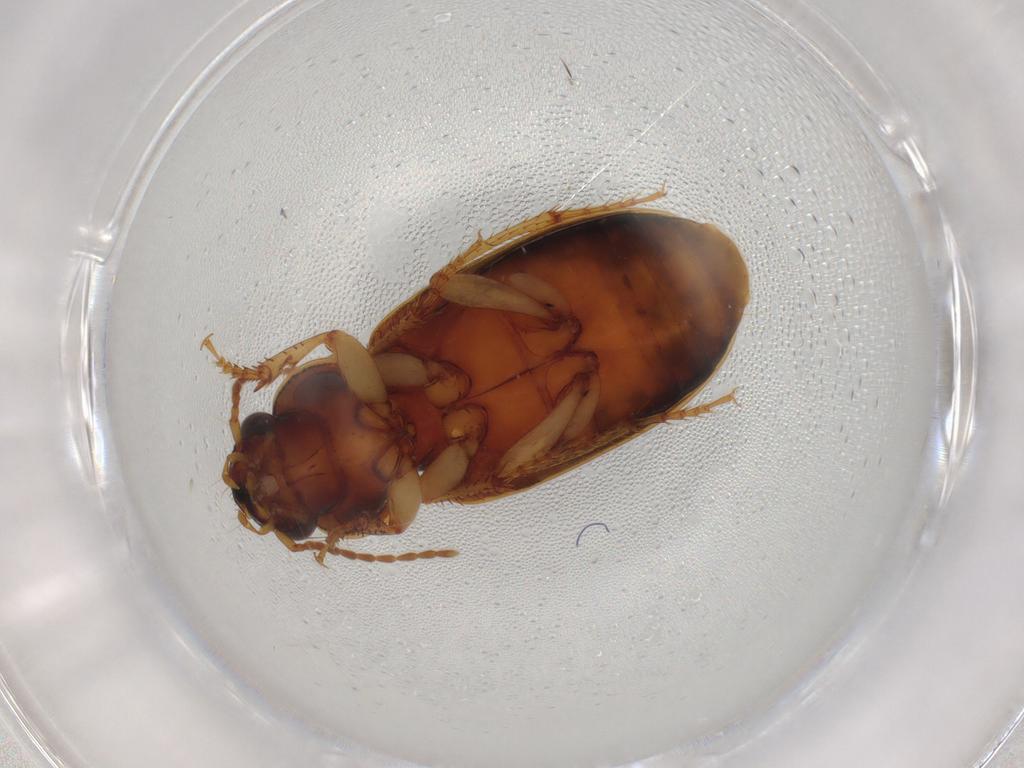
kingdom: Animalia
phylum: Arthropoda
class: Insecta
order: Coleoptera
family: Carabidae
